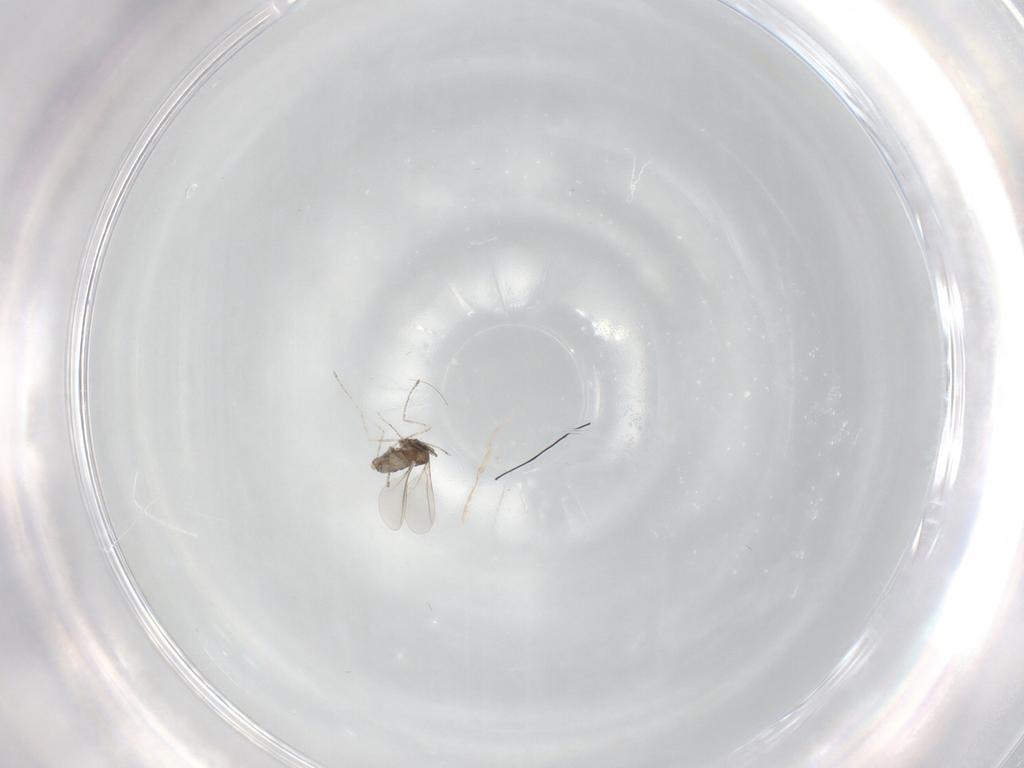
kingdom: Animalia
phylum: Arthropoda
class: Insecta
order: Diptera
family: Cecidomyiidae
